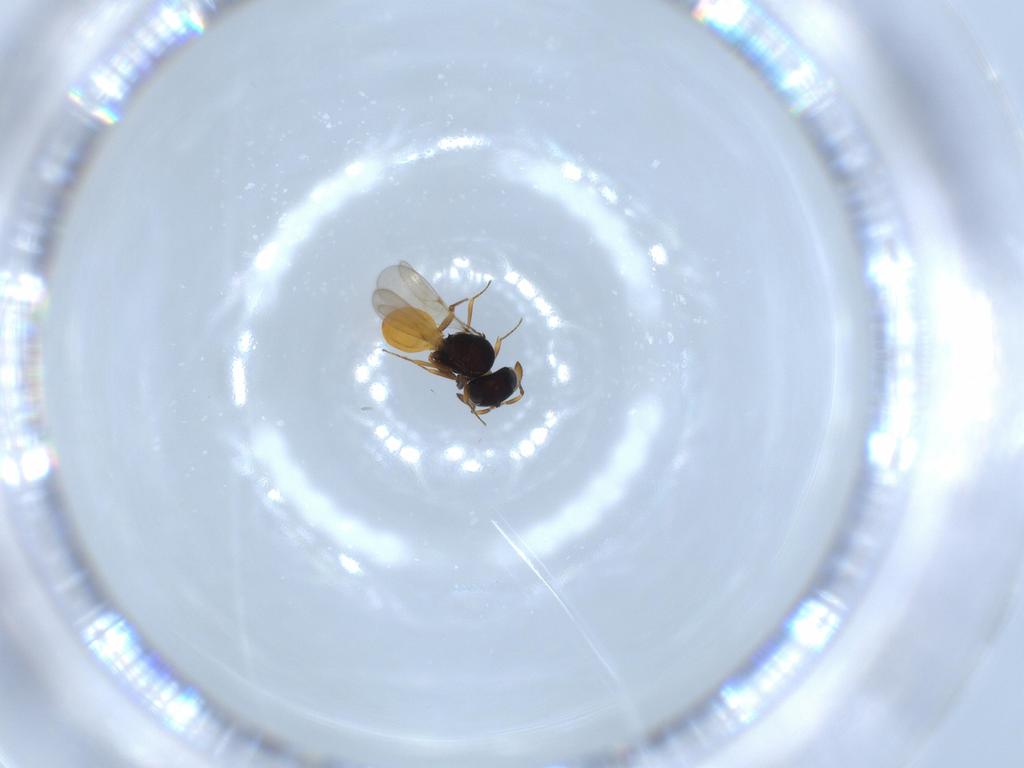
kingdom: Animalia
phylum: Arthropoda
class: Insecta
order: Hymenoptera
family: Scelionidae
